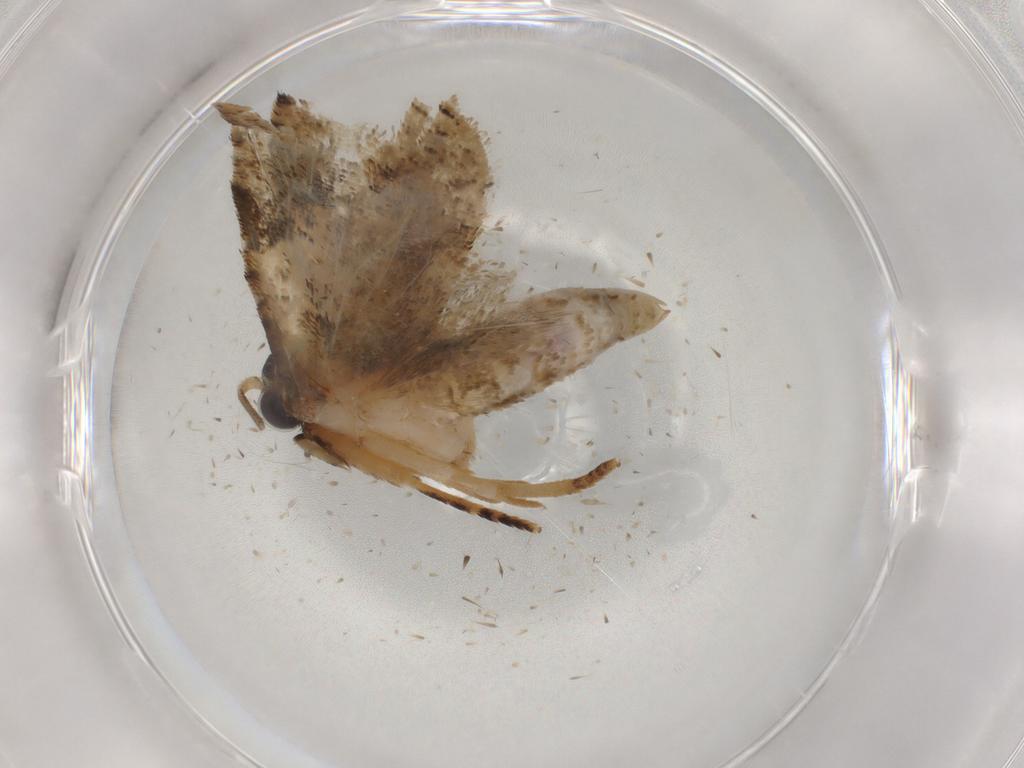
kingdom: Animalia
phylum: Arthropoda
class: Insecta
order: Lepidoptera
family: Tortricidae
